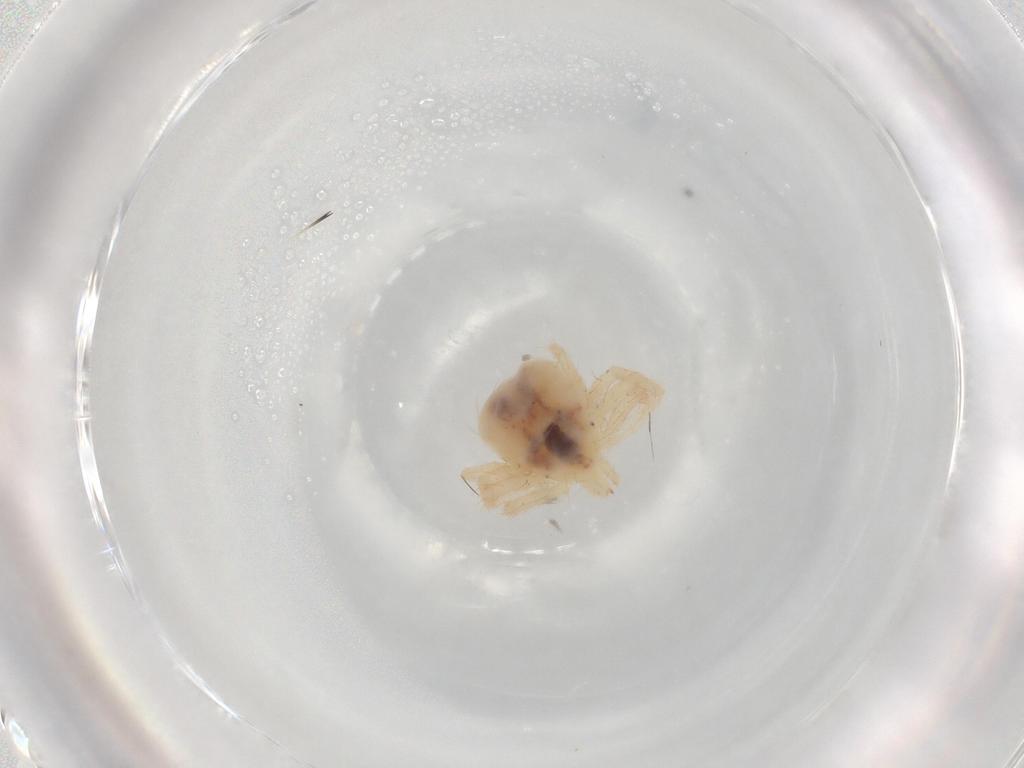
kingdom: Animalia
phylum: Arthropoda
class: Arachnida
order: Trombidiformes
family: Anystidae
